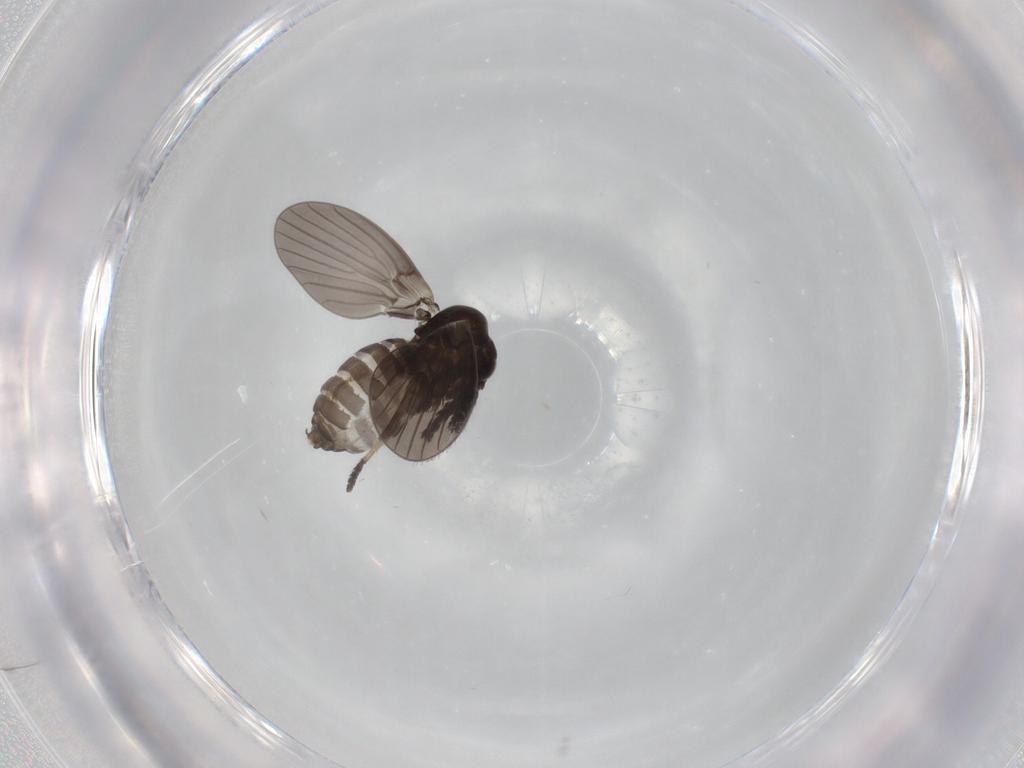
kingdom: Animalia
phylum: Arthropoda
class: Insecta
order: Diptera
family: Psychodidae
